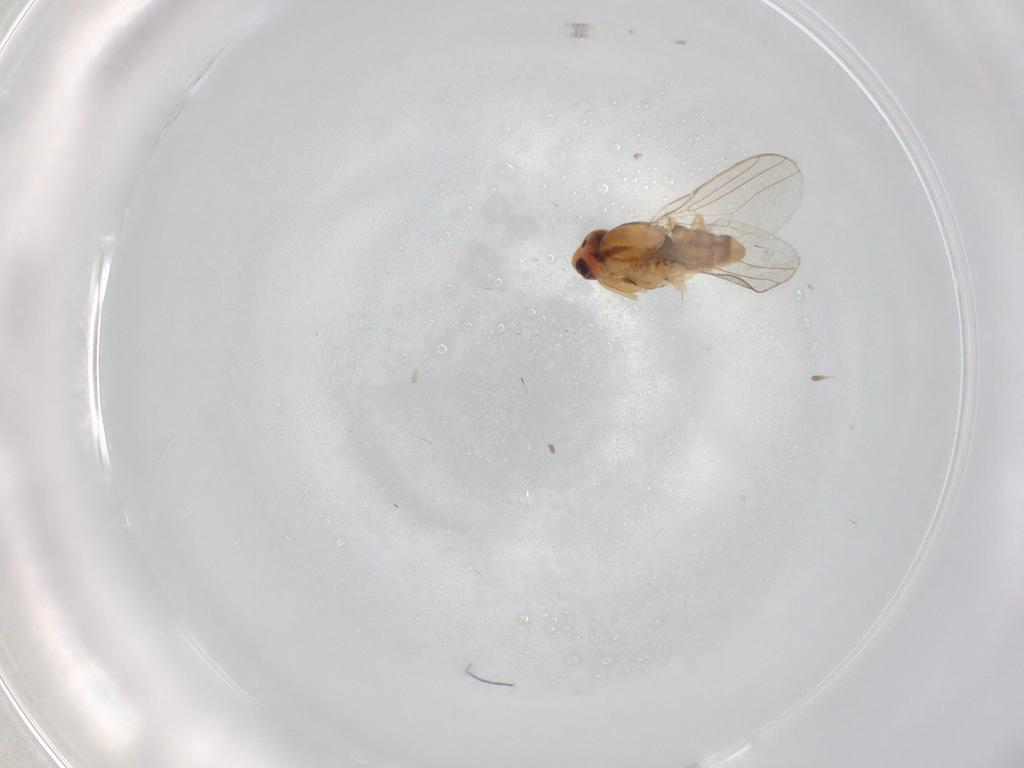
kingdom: Animalia
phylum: Arthropoda
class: Insecta
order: Diptera
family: Chloropidae
